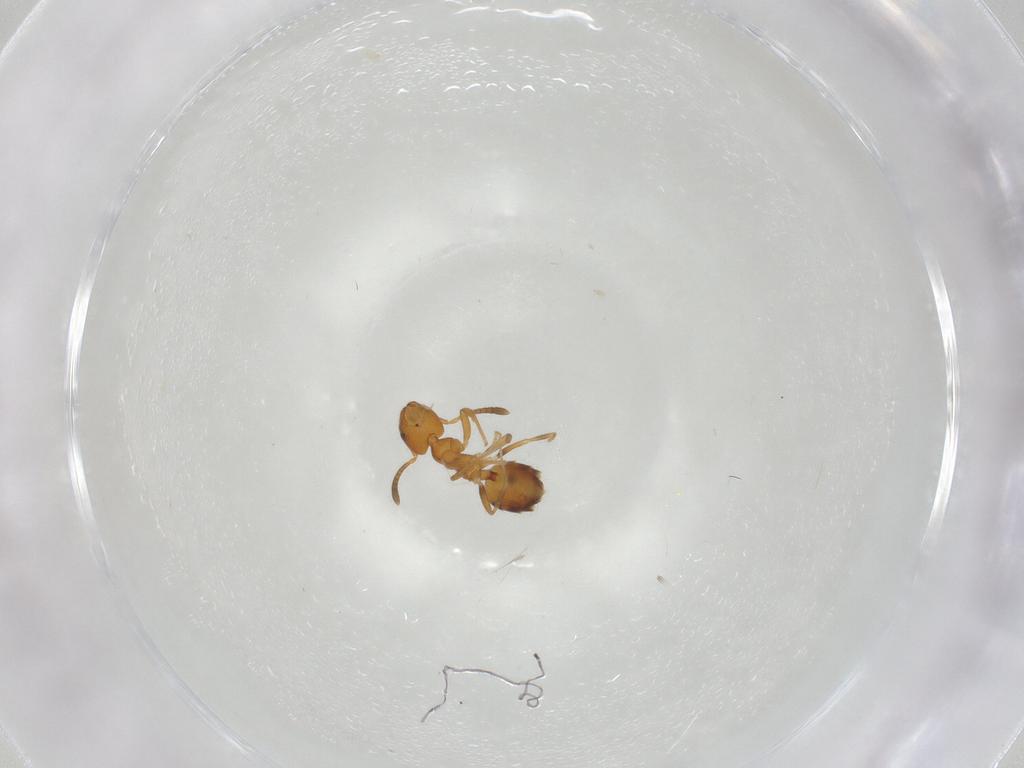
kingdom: Animalia
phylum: Arthropoda
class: Insecta
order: Hymenoptera
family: Formicidae
